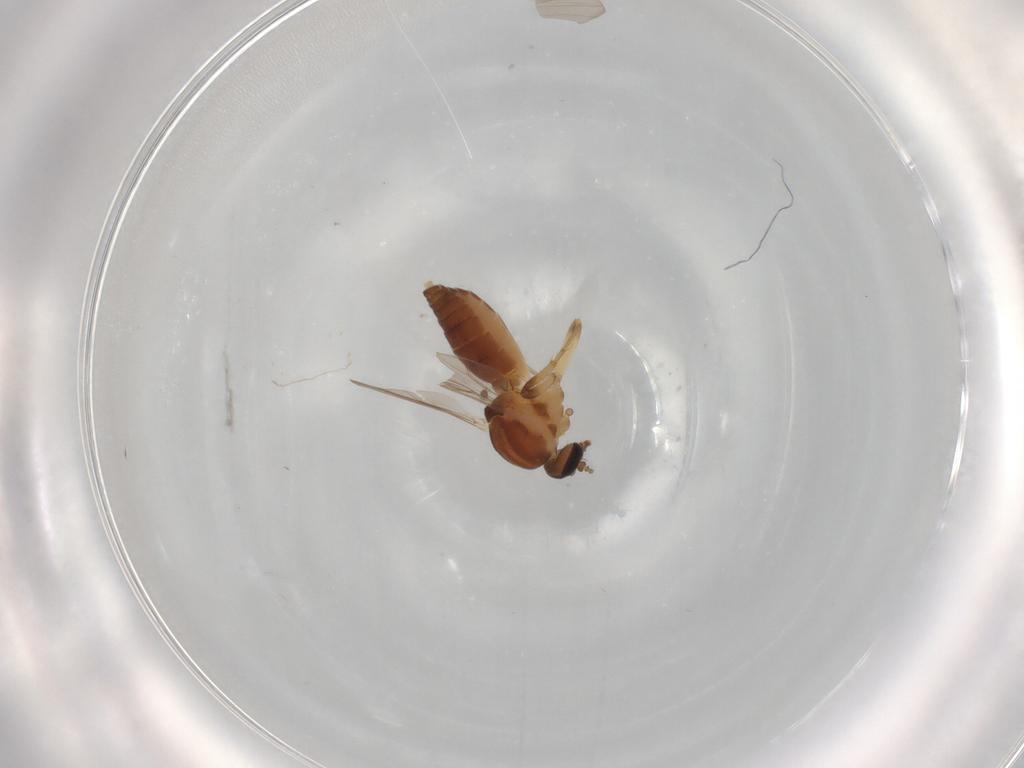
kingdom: Animalia
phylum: Arthropoda
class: Insecta
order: Diptera
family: Ceratopogonidae
